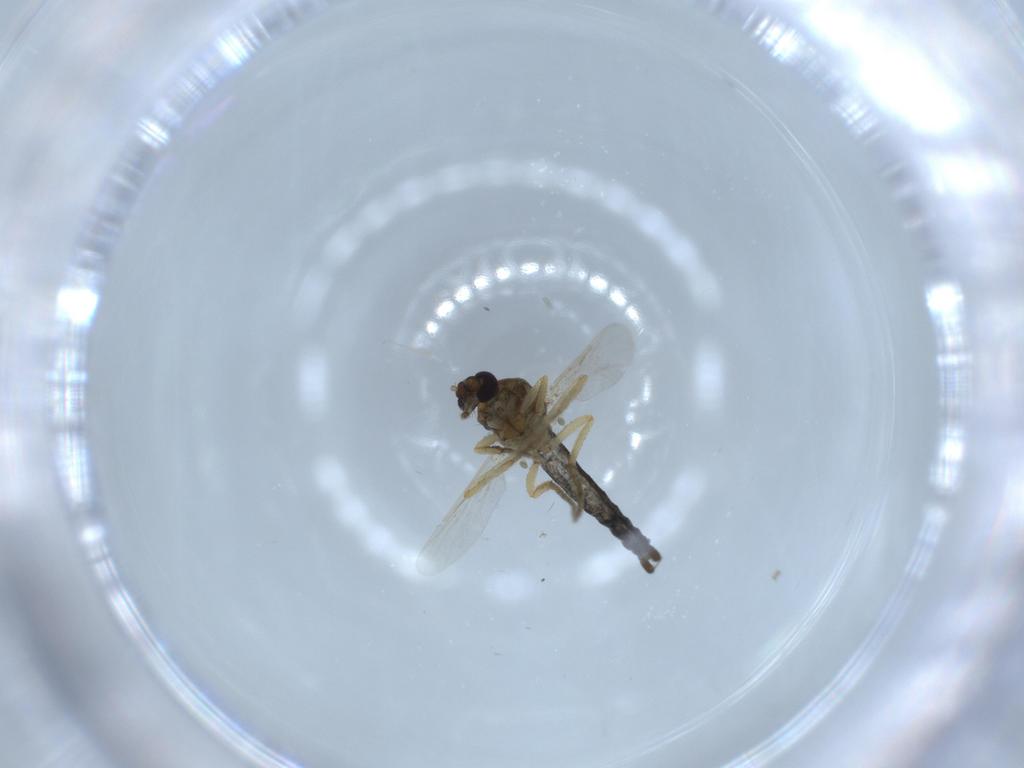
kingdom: Animalia
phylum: Arthropoda
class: Insecta
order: Diptera
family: Ceratopogonidae
